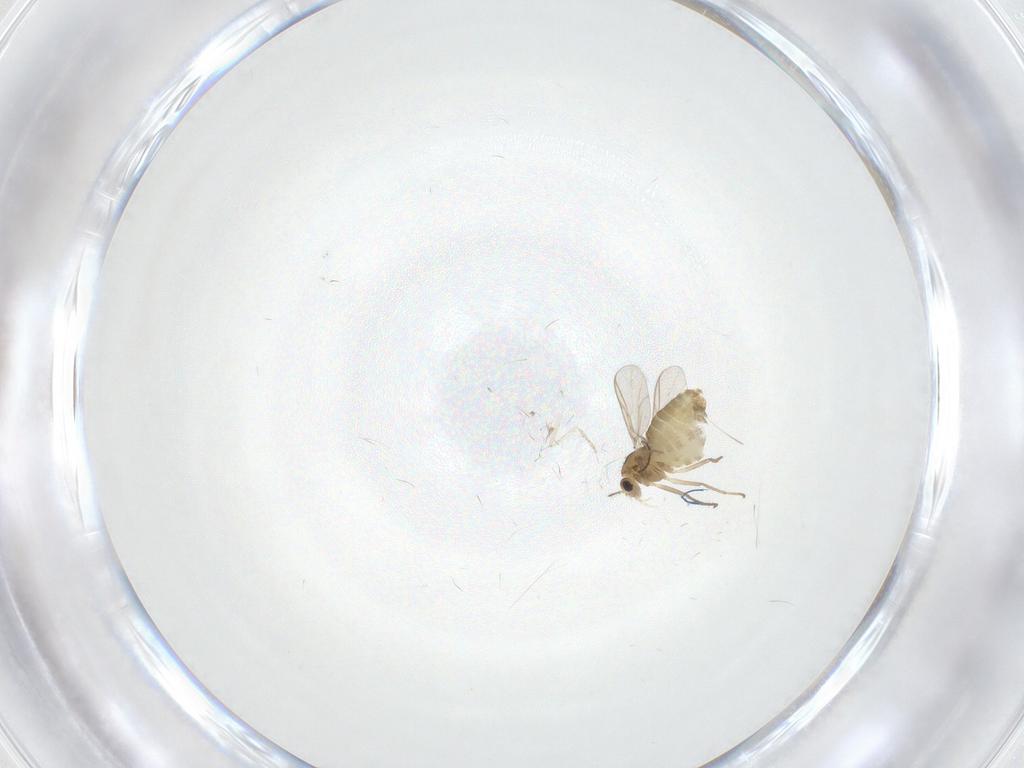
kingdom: Animalia
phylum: Arthropoda
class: Insecta
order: Diptera
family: Chironomidae
